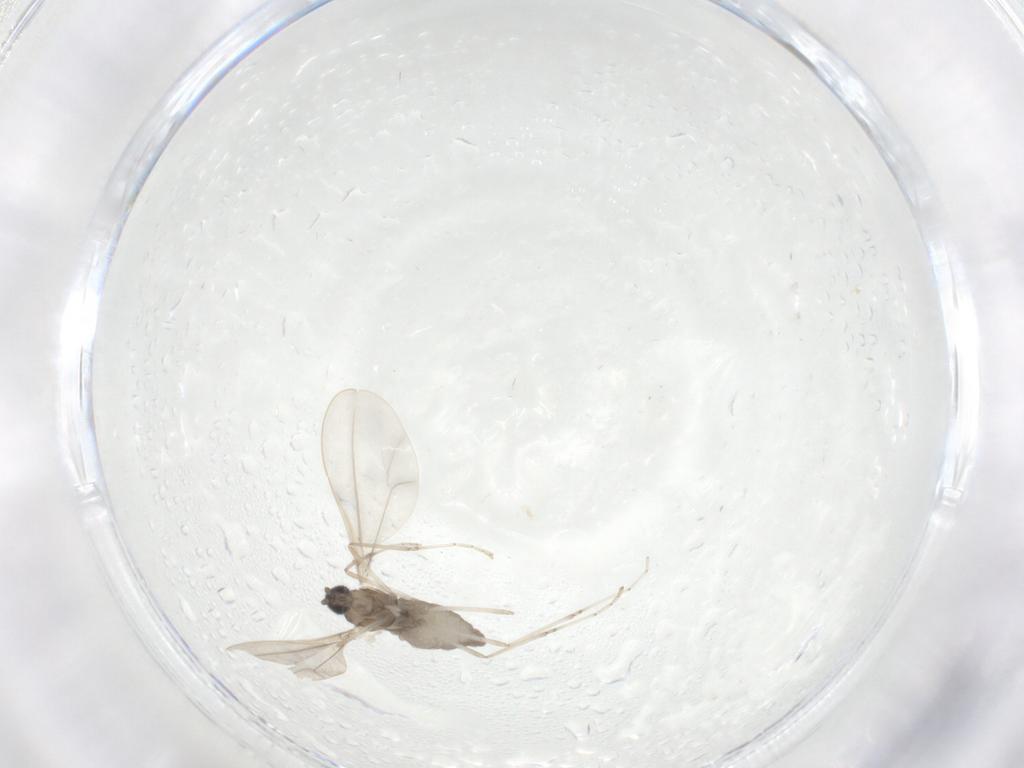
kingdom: Animalia
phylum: Arthropoda
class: Insecta
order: Diptera
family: Cecidomyiidae
